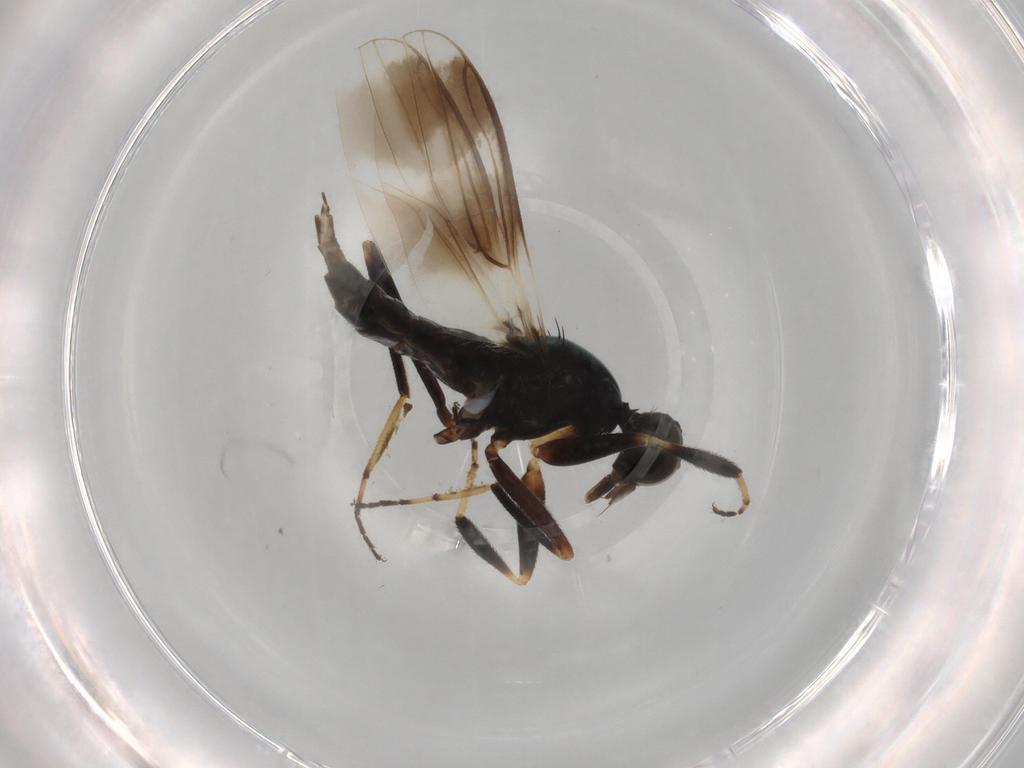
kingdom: Animalia
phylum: Arthropoda
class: Insecta
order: Diptera
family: Hybotidae
